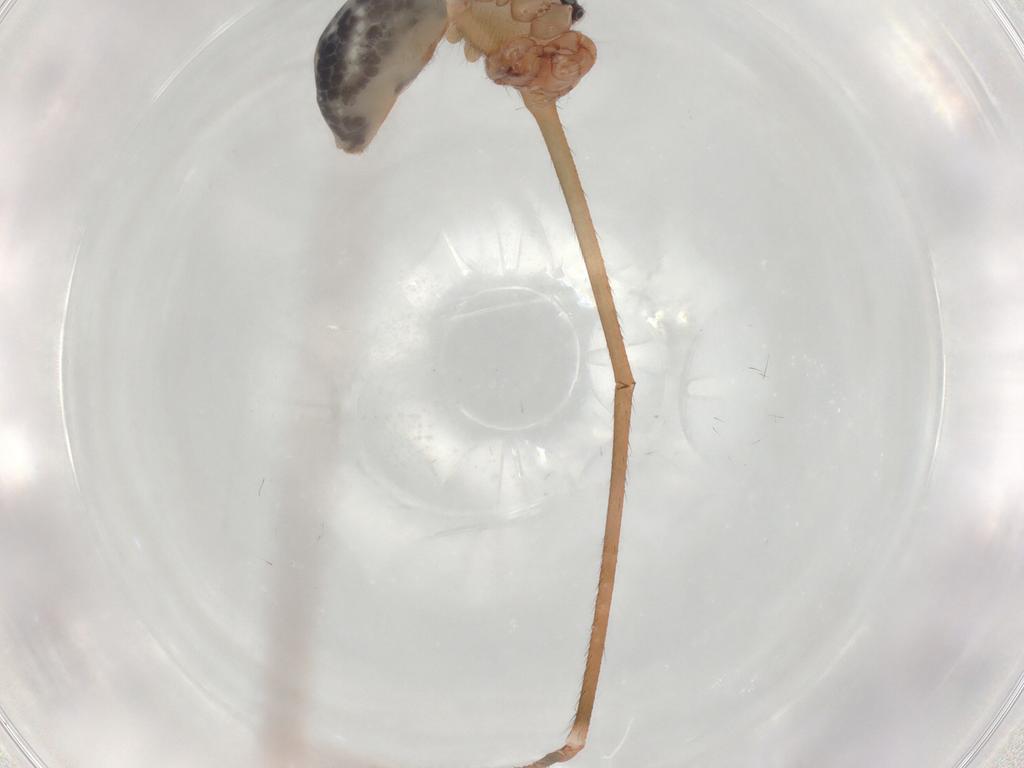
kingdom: Animalia
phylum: Arthropoda
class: Arachnida
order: Araneae
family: Pholcidae
